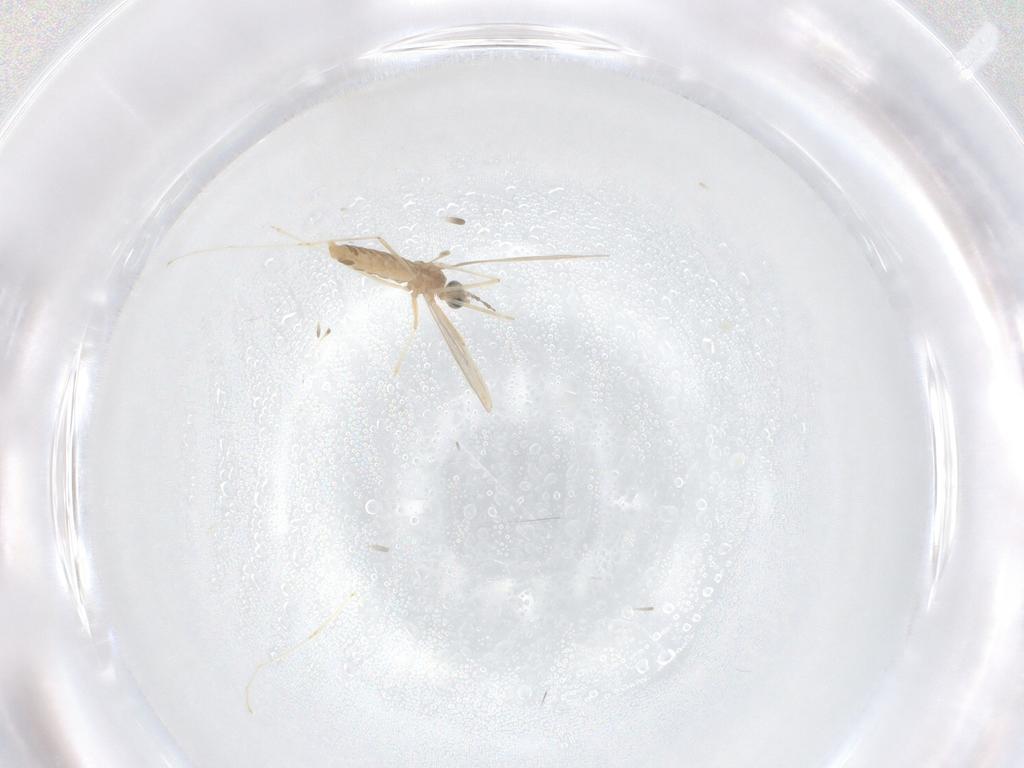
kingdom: Animalia
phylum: Arthropoda
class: Insecta
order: Diptera
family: Cecidomyiidae
